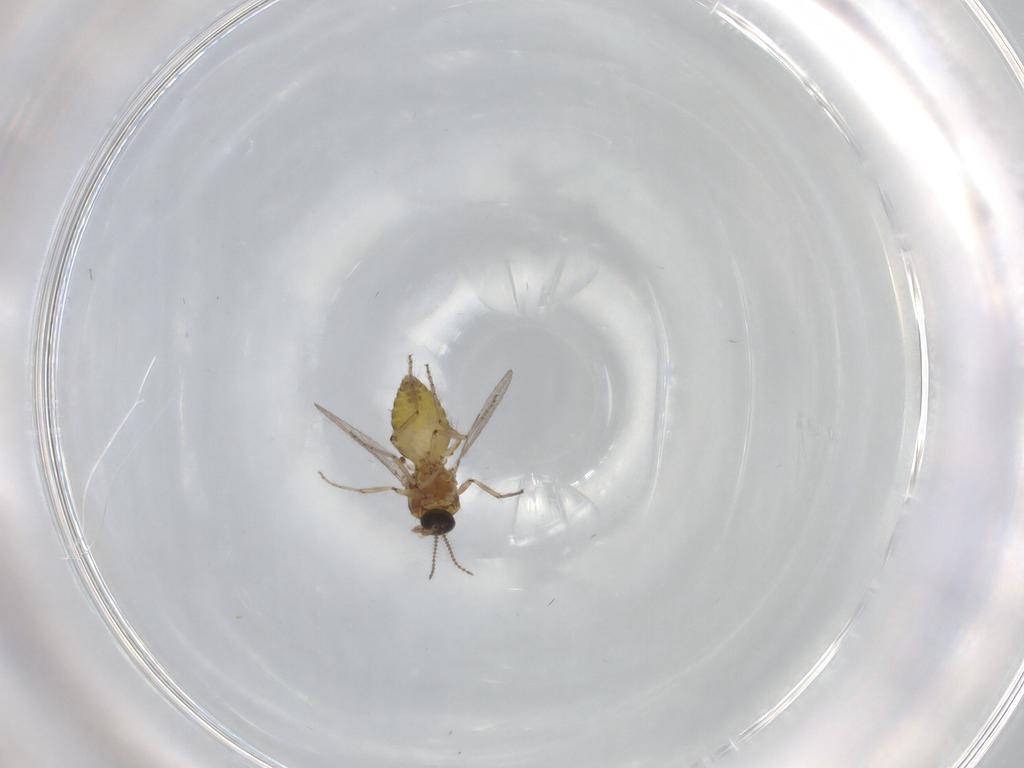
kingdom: Animalia
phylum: Arthropoda
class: Insecta
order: Diptera
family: Ceratopogonidae
